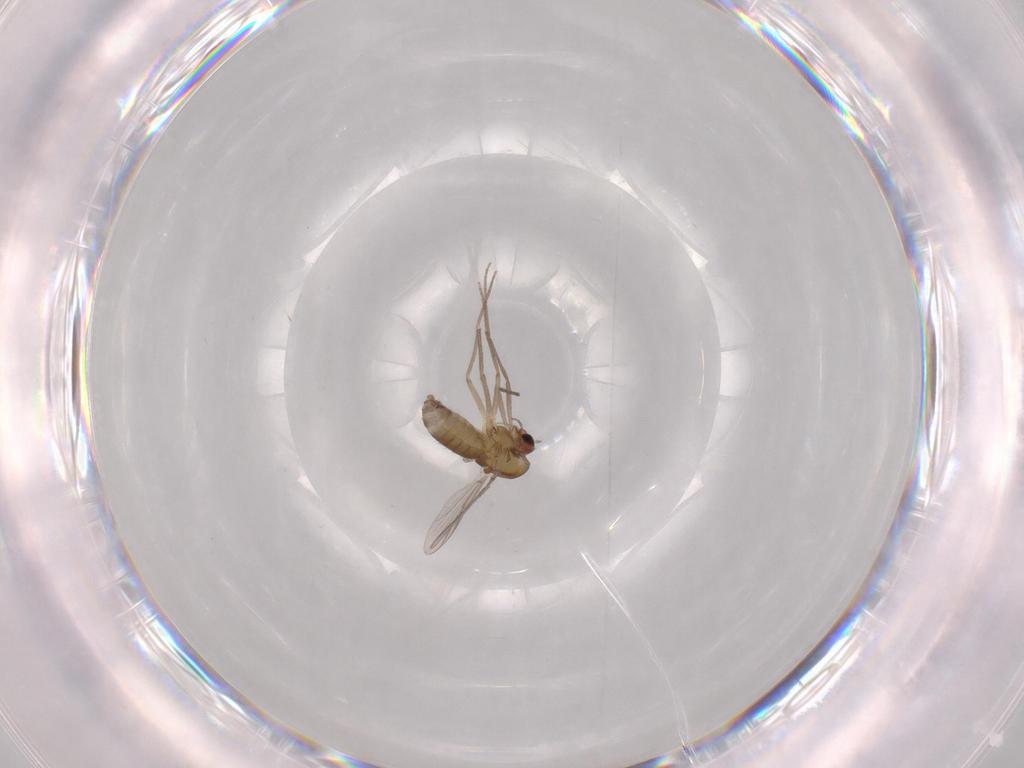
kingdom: Animalia
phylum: Arthropoda
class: Insecta
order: Diptera
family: Chironomidae
